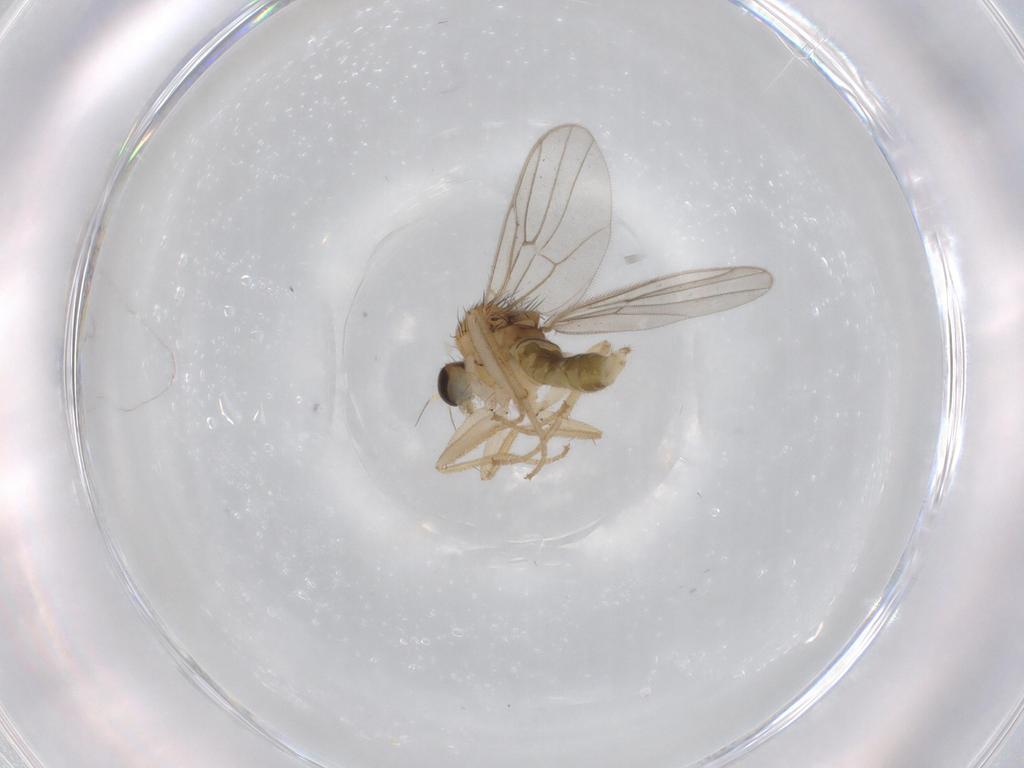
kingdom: Animalia
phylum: Arthropoda
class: Insecta
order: Diptera
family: Hybotidae
